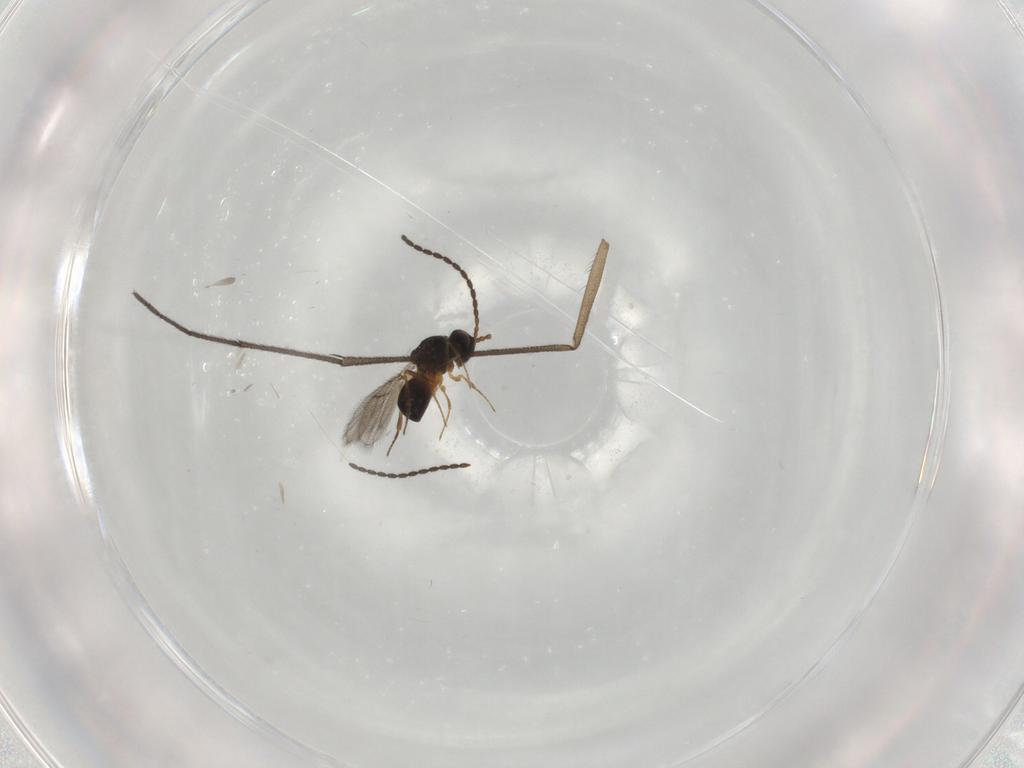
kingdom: Animalia
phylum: Arthropoda
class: Insecta
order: Hymenoptera
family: Figitidae
